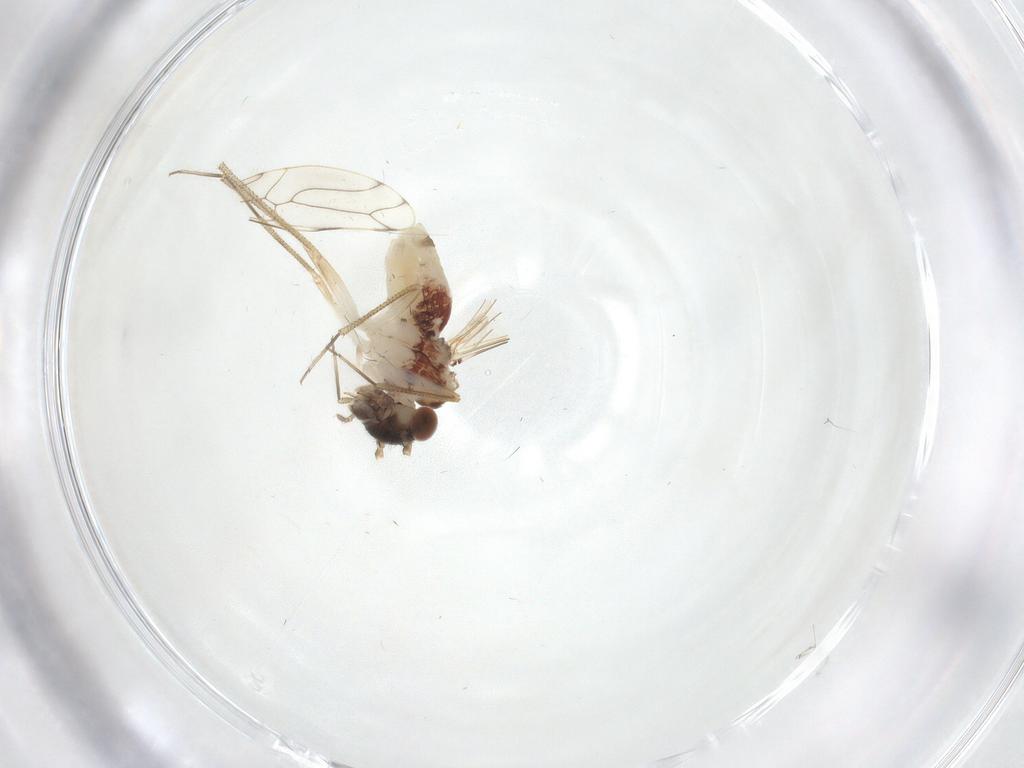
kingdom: Animalia
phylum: Arthropoda
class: Insecta
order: Psocodea
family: Epipsocidae
